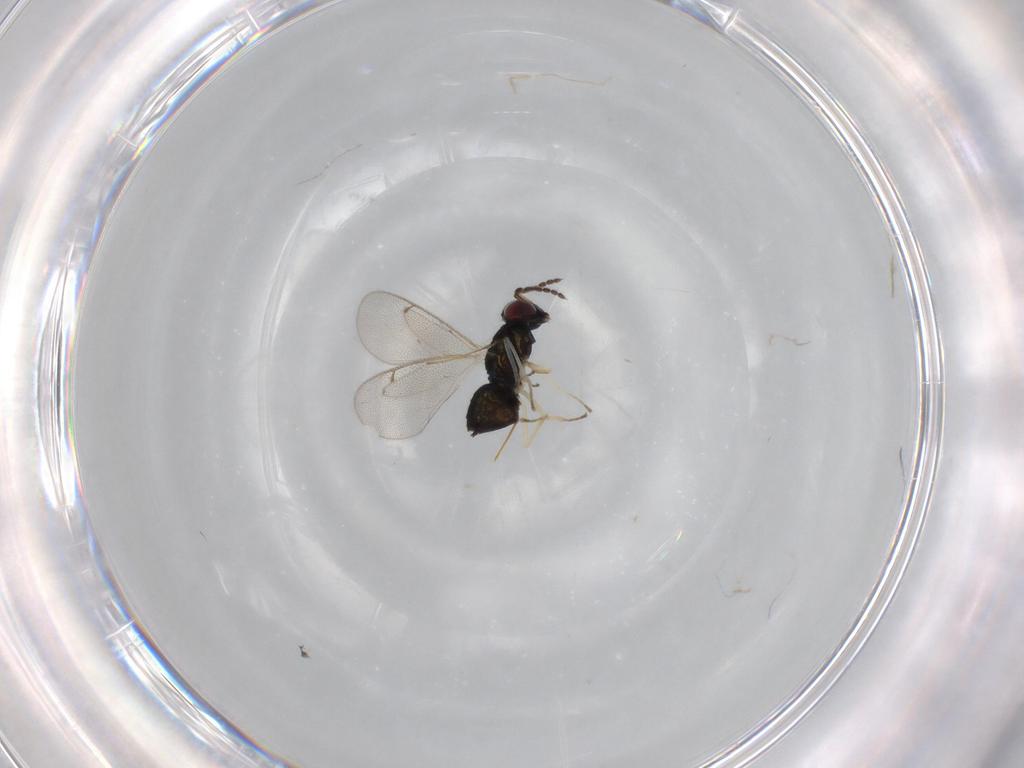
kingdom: Animalia
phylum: Arthropoda
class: Insecta
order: Hymenoptera
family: Eulophidae
